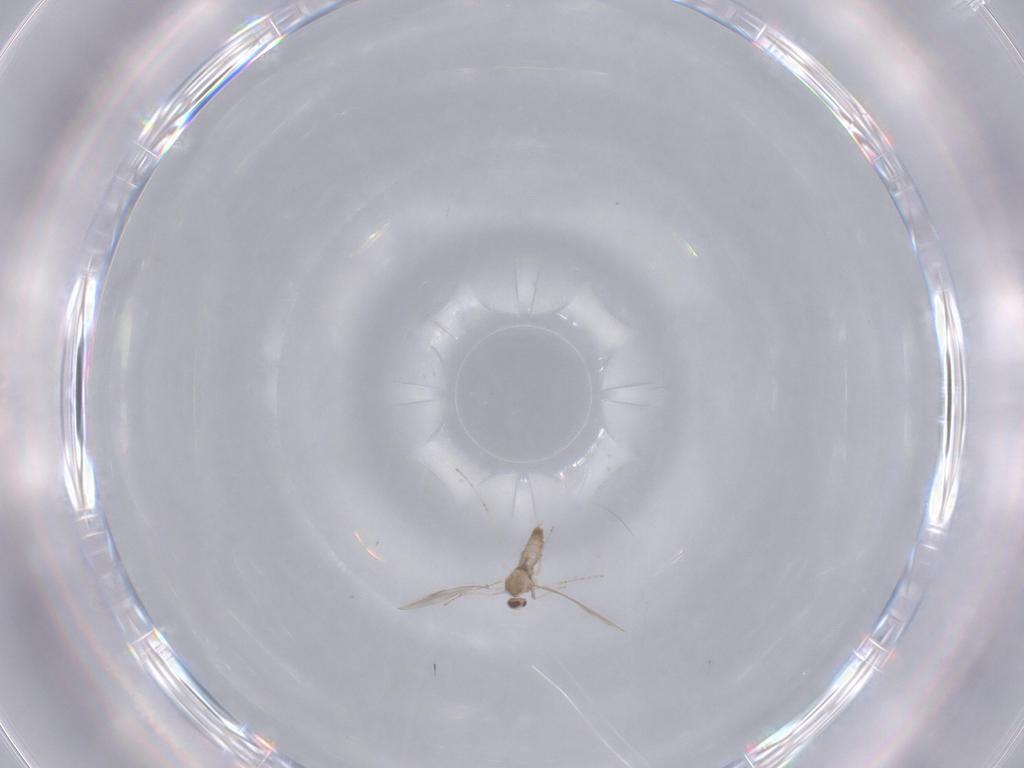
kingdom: Animalia
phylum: Arthropoda
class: Insecta
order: Diptera
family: Cecidomyiidae
